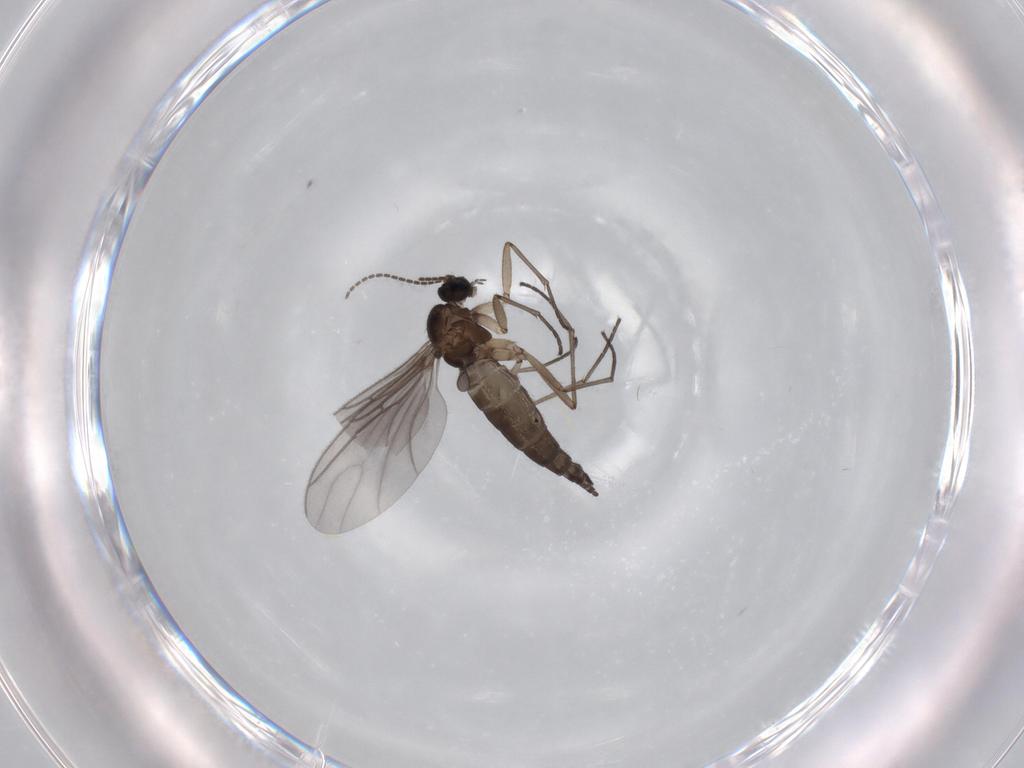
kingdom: Animalia
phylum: Arthropoda
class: Insecta
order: Diptera
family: Sciaridae
